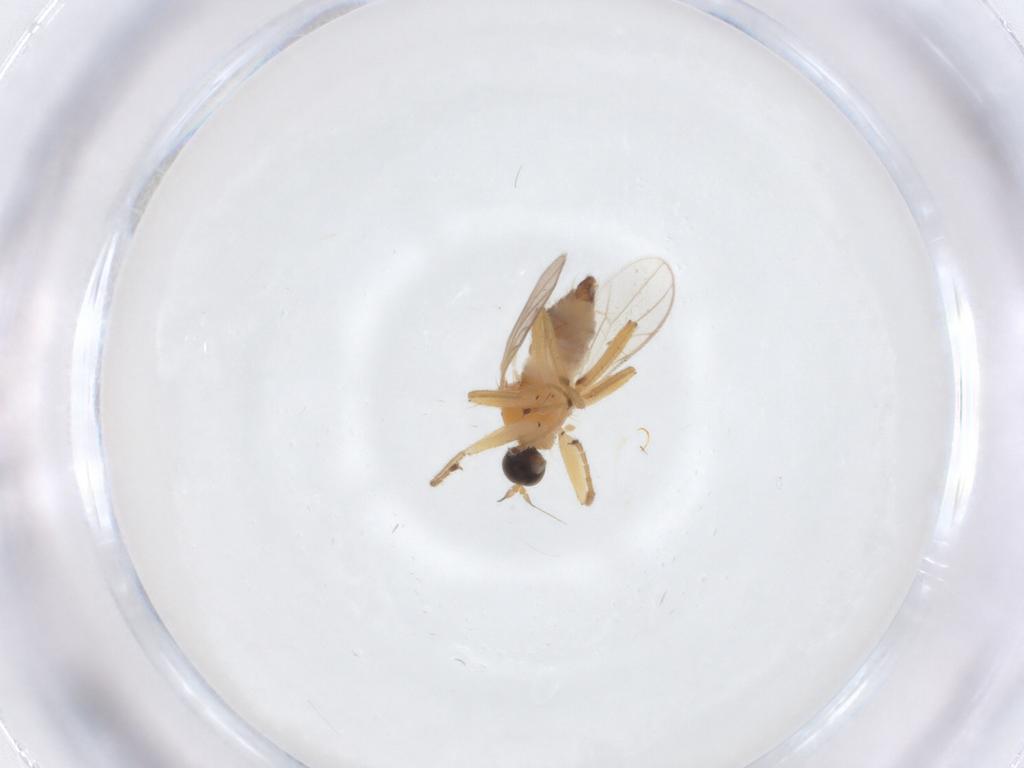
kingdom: Animalia
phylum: Arthropoda
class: Insecta
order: Diptera
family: Hybotidae
